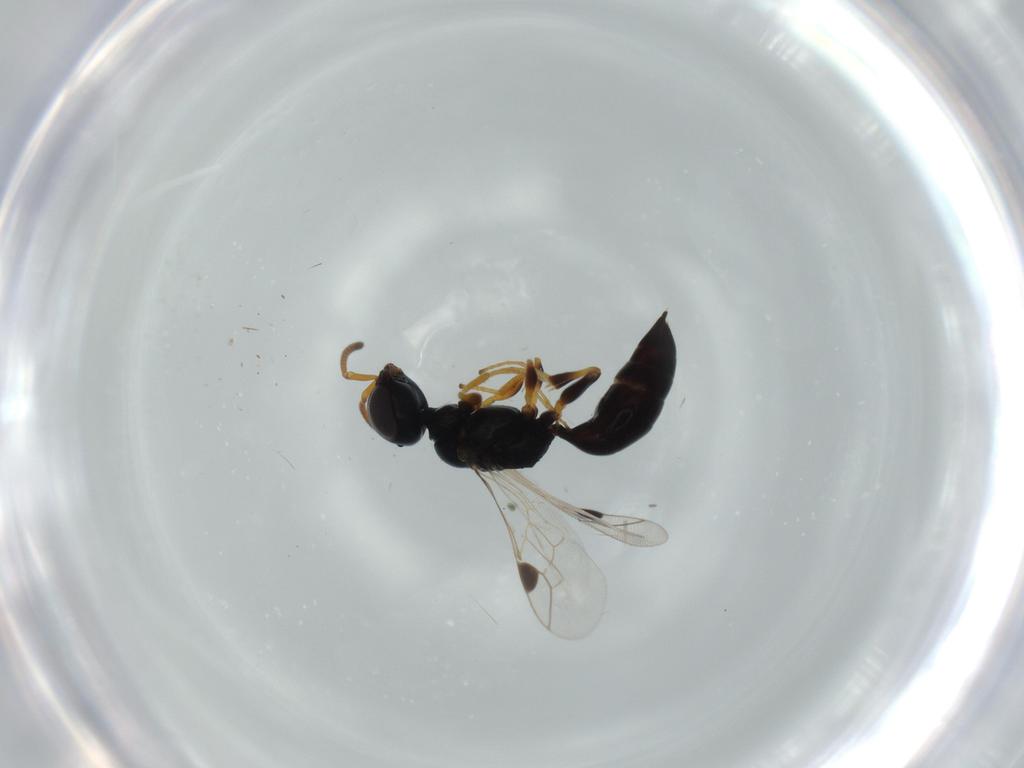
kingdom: Animalia
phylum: Arthropoda
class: Insecta
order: Hymenoptera
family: Pemphredonidae
